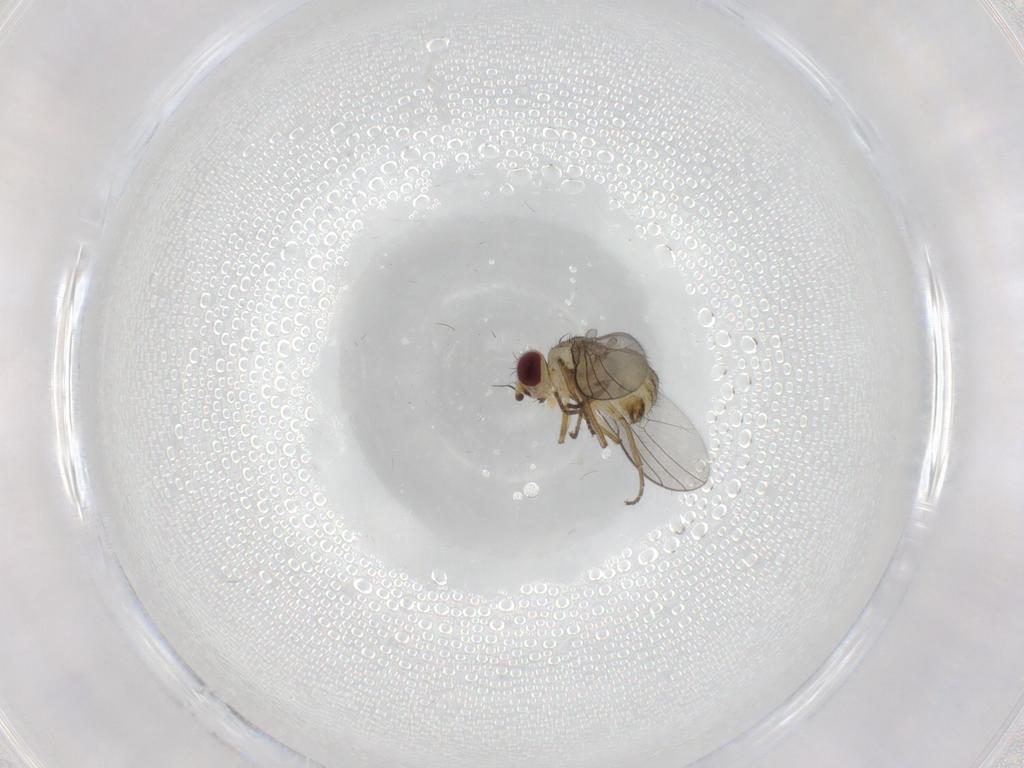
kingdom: Animalia
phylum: Arthropoda
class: Insecta
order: Diptera
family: Agromyzidae
